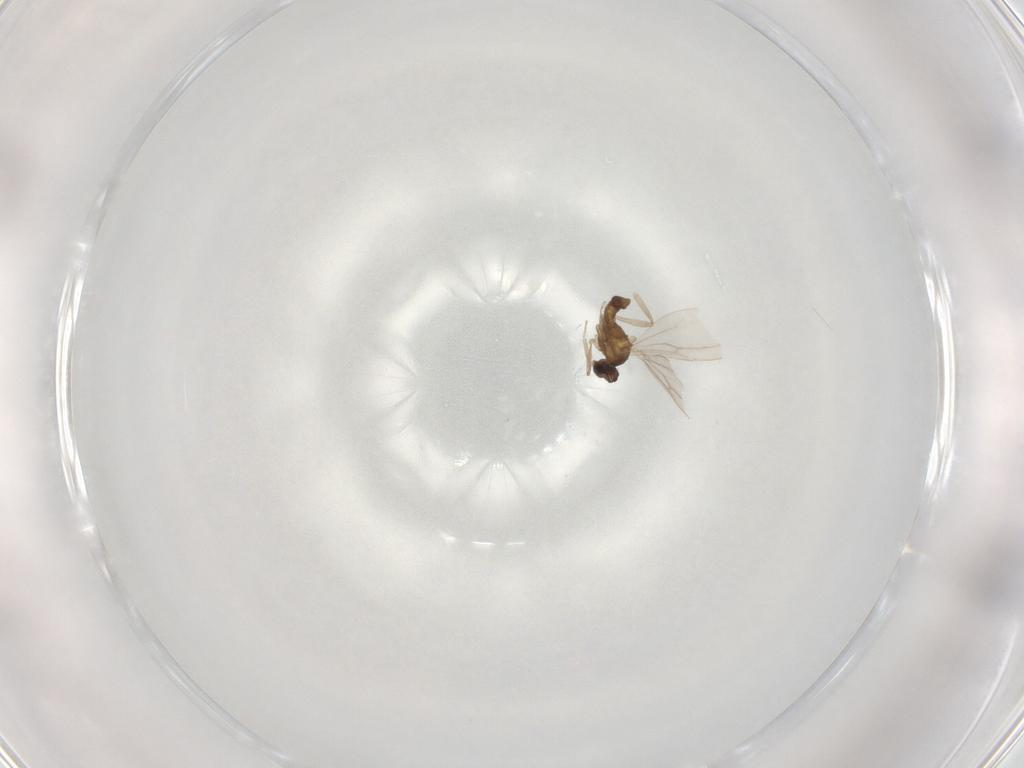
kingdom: Animalia
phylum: Arthropoda
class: Insecta
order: Diptera
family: Cecidomyiidae
